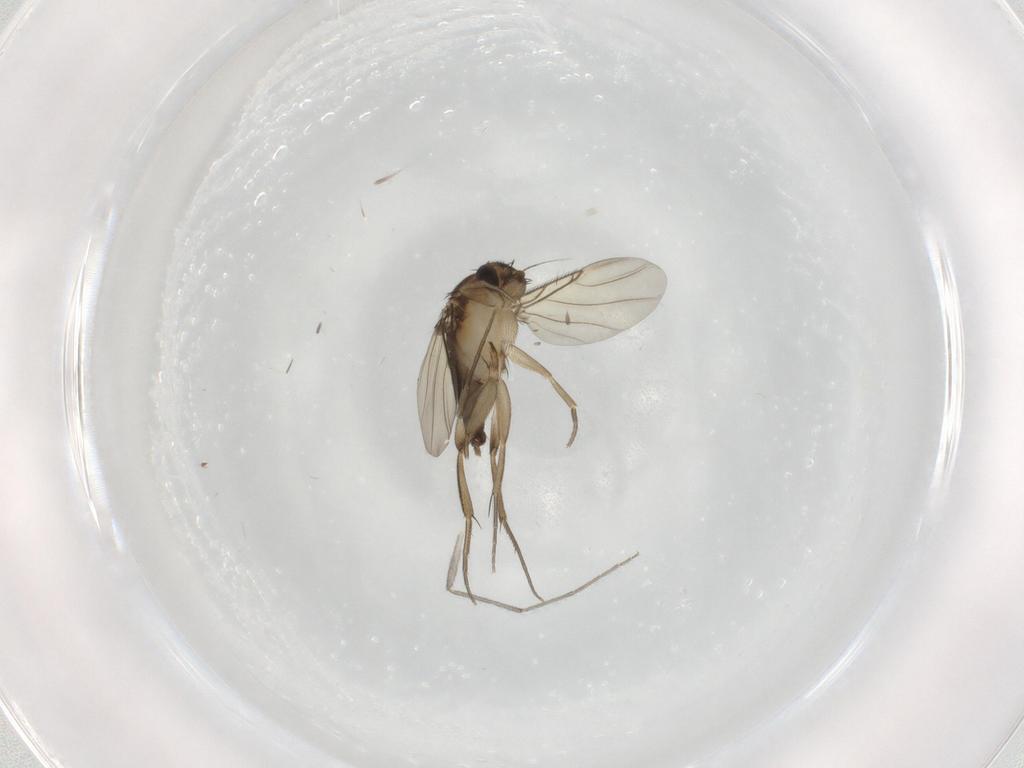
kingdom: Animalia
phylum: Arthropoda
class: Insecta
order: Diptera
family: Phoridae
